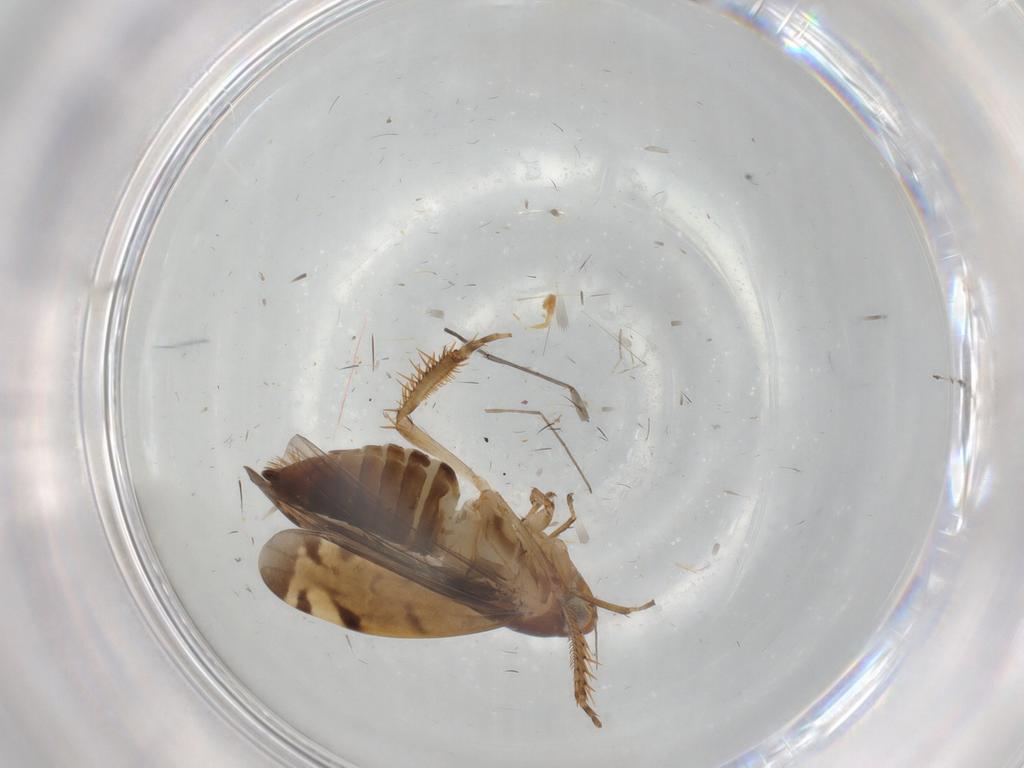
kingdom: Animalia
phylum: Arthropoda
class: Insecta
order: Hemiptera
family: Cicadellidae
